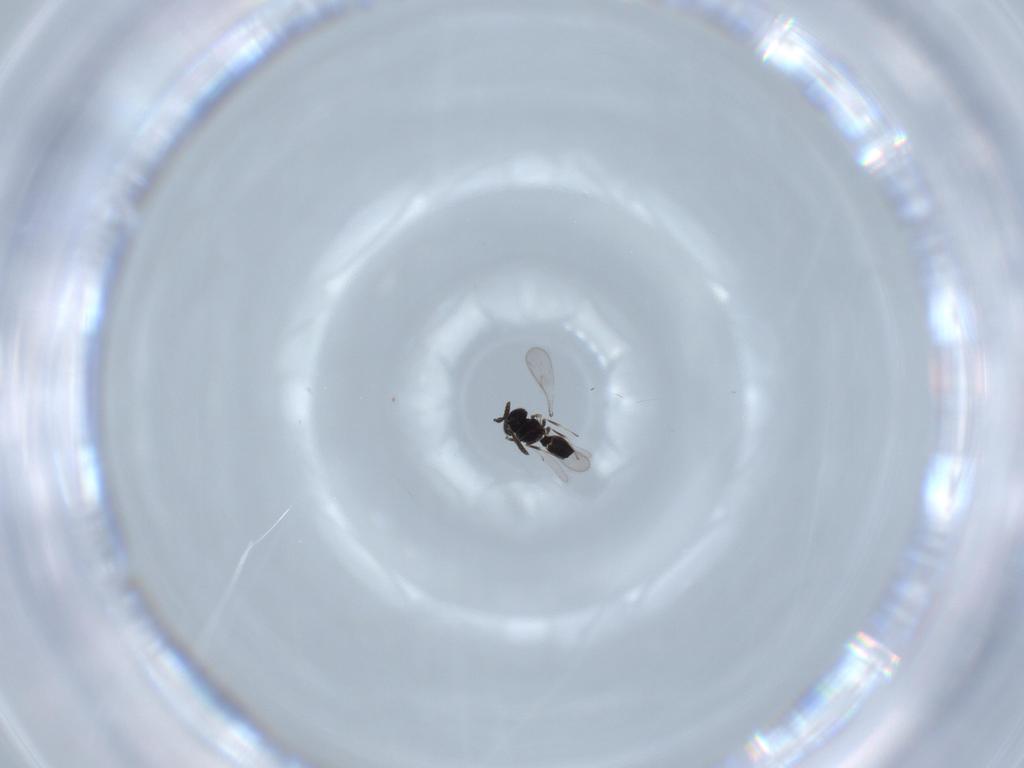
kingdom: Animalia
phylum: Arthropoda
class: Insecta
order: Hymenoptera
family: Scelionidae
